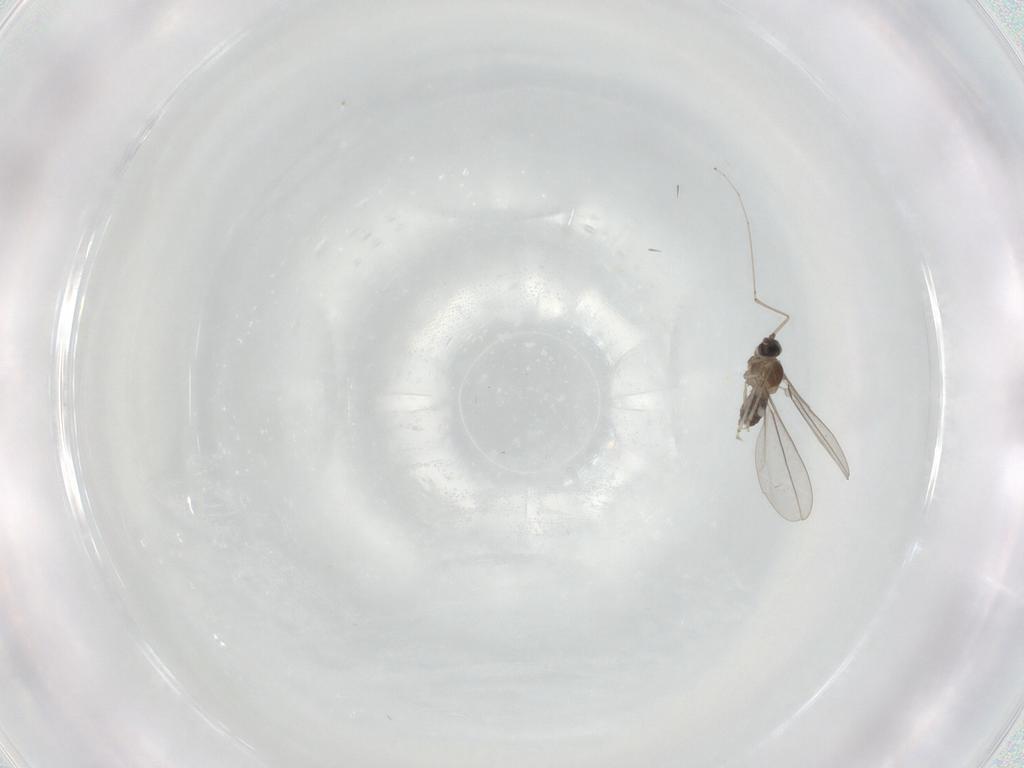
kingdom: Animalia
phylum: Arthropoda
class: Insecta
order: Diptera
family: Cecidomyiidae
